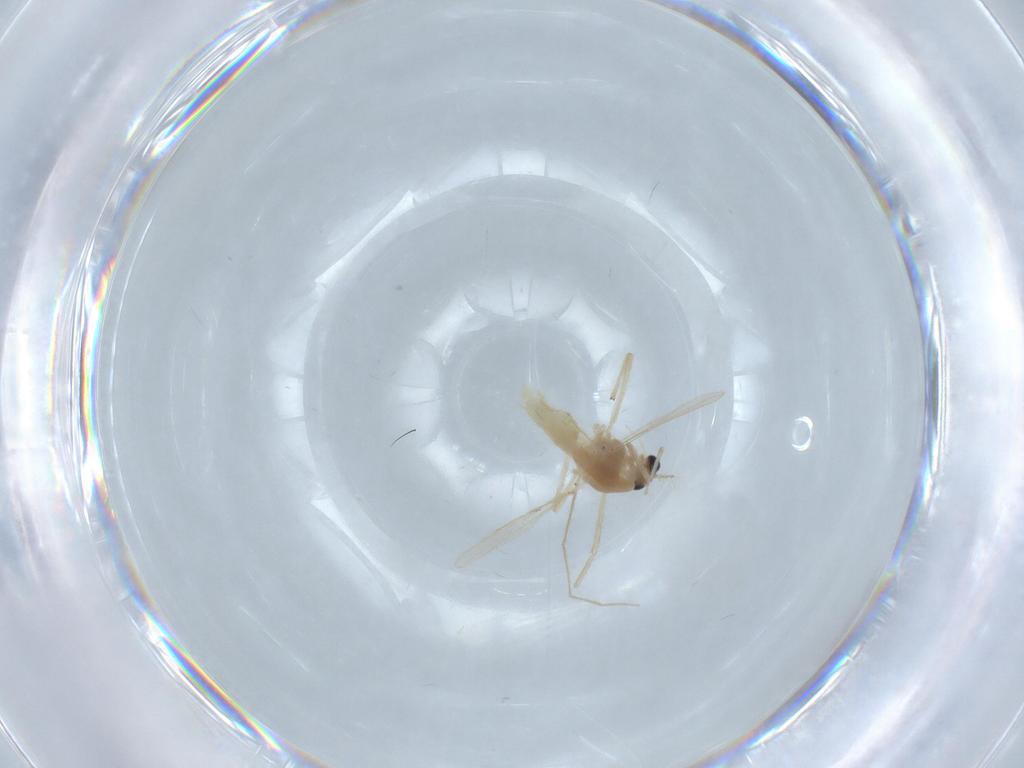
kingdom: Animalia
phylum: Arthropoda
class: Insecta
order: Diptera
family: Chironomidae
